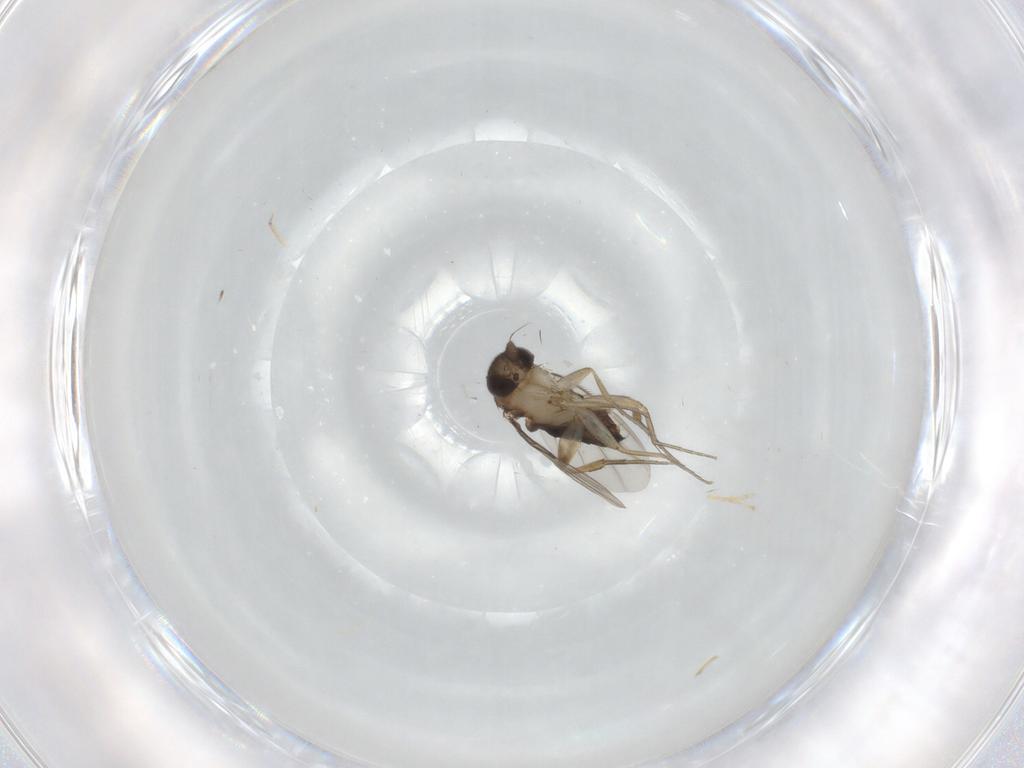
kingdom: Animalia
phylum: Arthropoda
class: Insecta
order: Diptera
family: Phoridae
